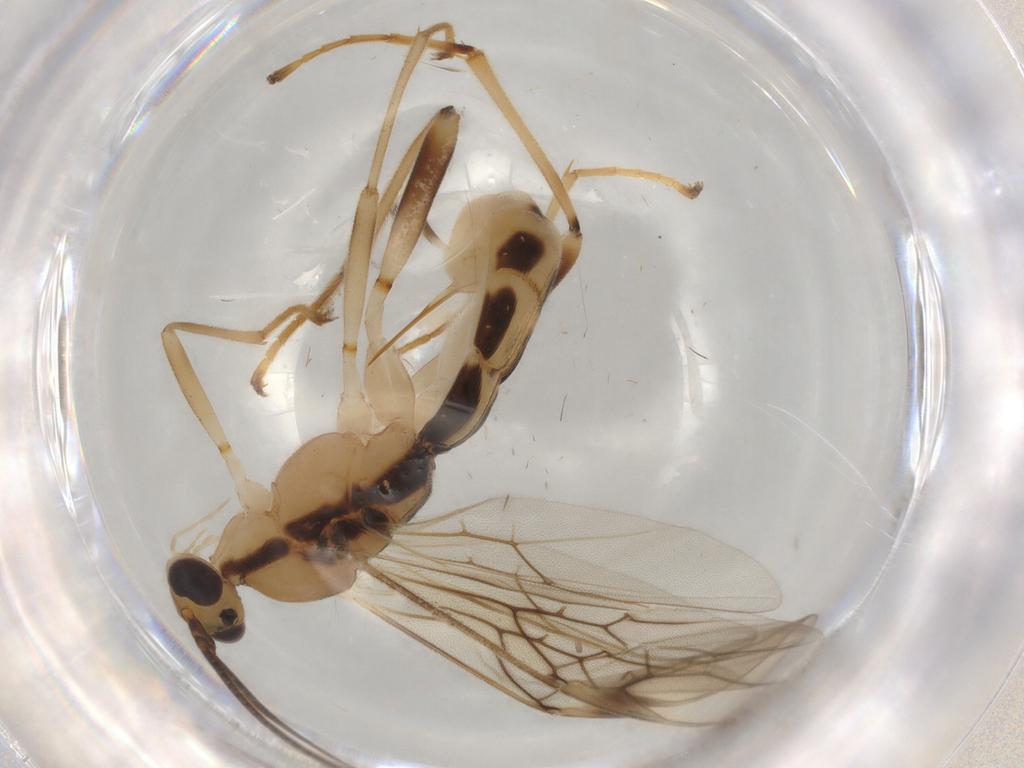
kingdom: Animalia
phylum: Arthropoda
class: Insecta
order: Hymenoptera
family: Braconidae
